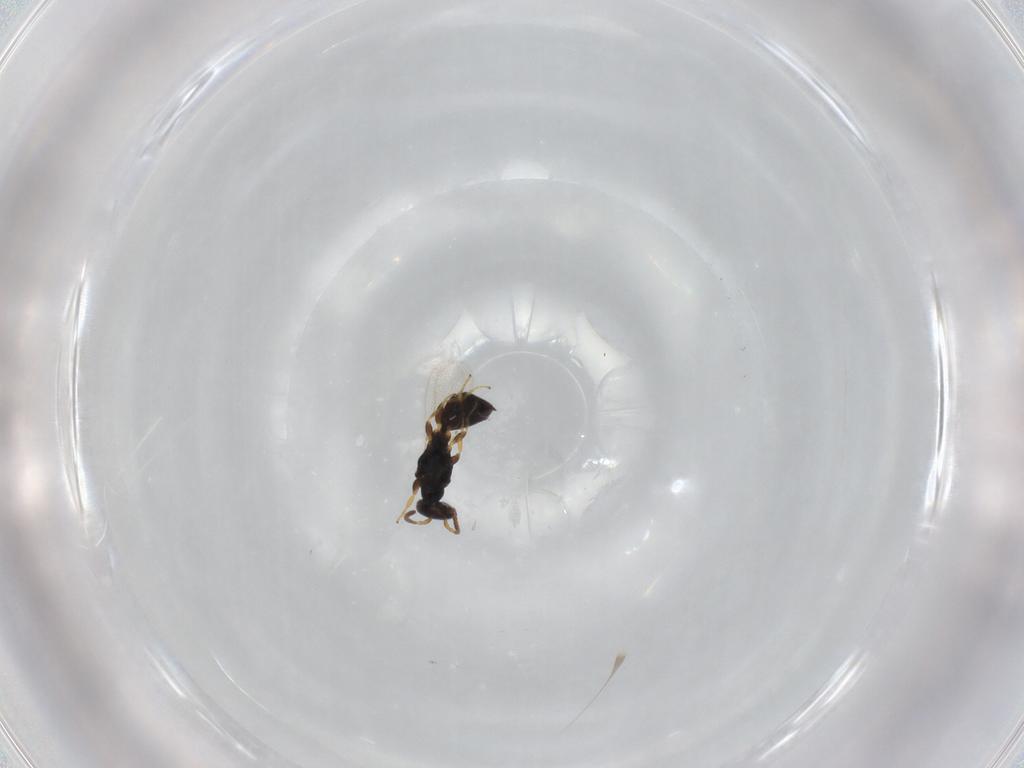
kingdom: Animalia
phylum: Arthropoda
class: Insecta
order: Hymenoptera
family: Bethylidae
